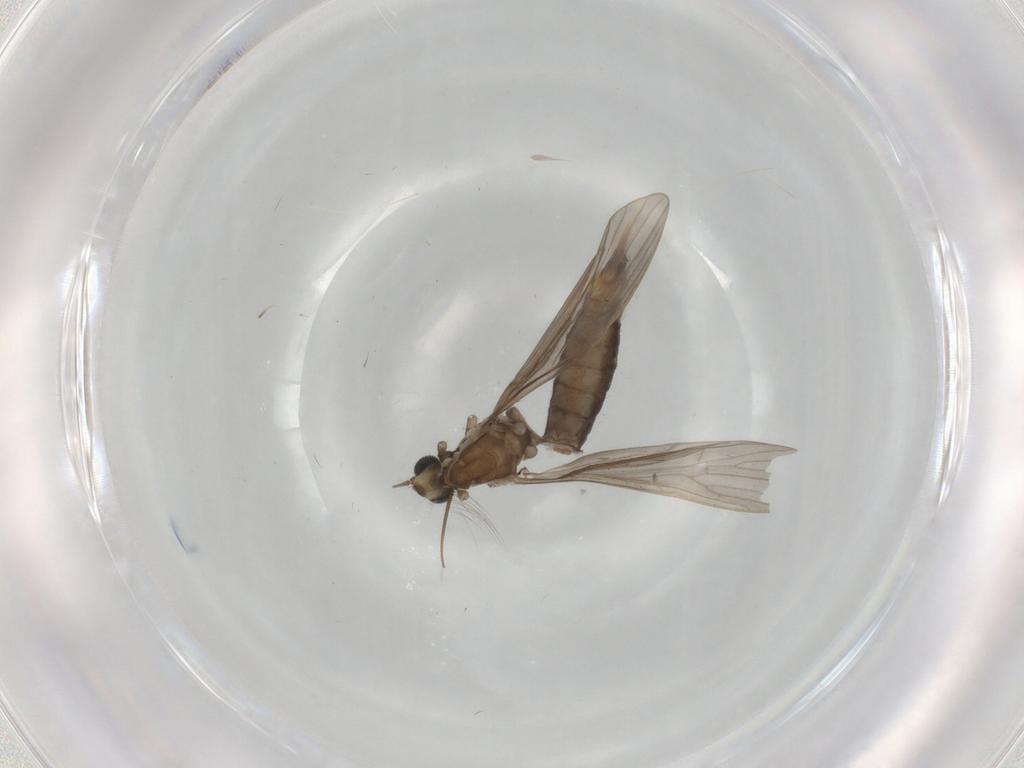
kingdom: Animalia
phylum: Arthropoda
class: Insecta
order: Diptera
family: Limoniidae
